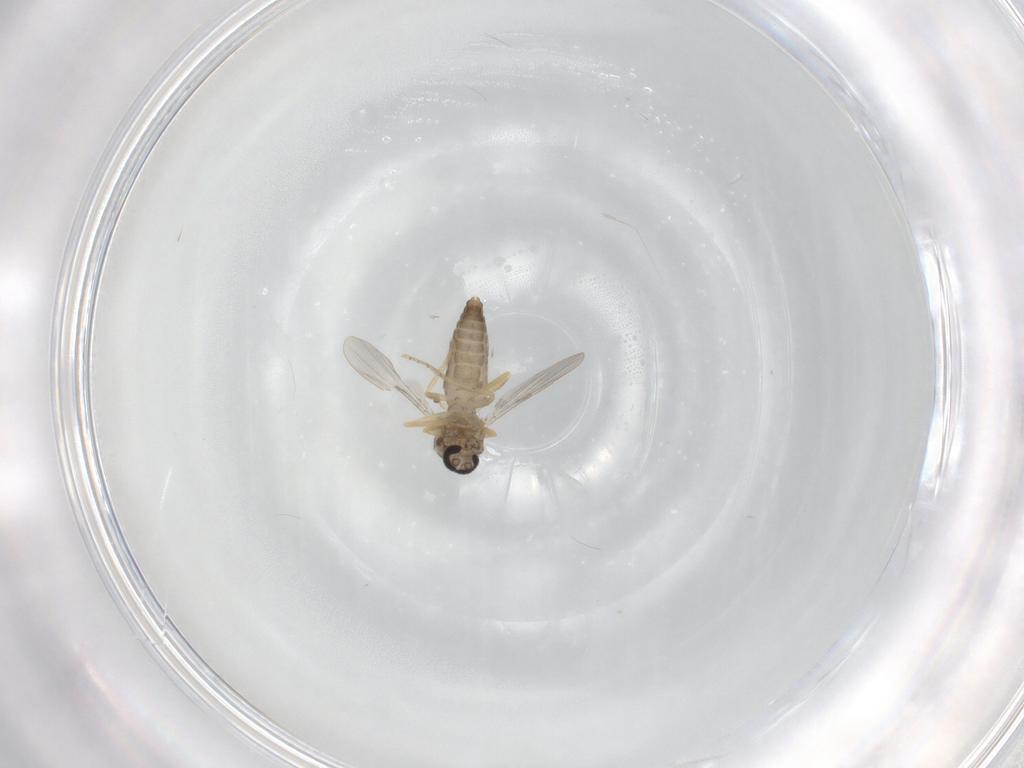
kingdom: Animalia
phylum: Arthropoda
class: Insecta
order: Diptera
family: Ceratopogonidae
